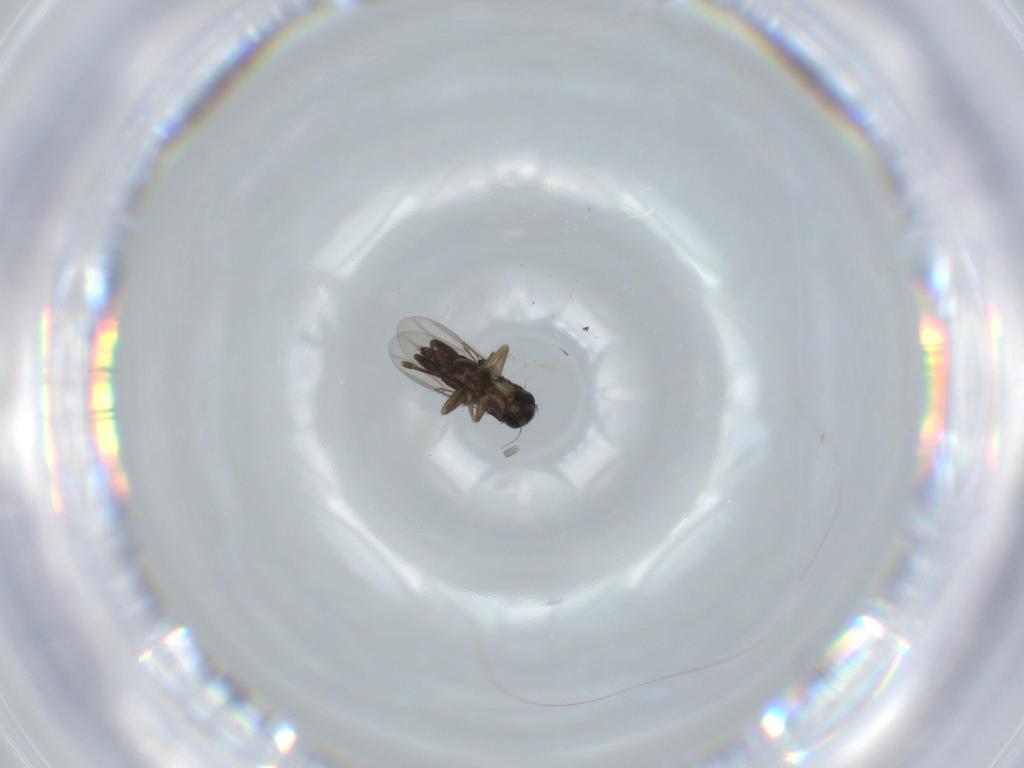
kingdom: Animalia
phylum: Arthropoda
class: Insecta
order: Diptera
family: Phoridae
